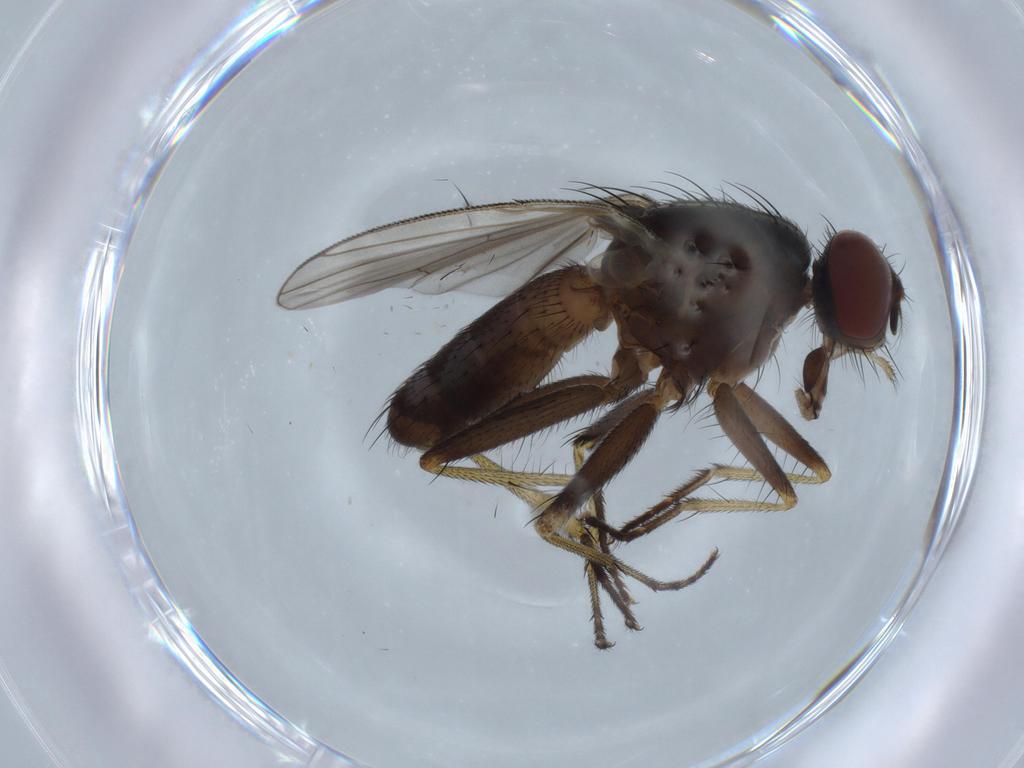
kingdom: Animalia
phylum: Arthropoda
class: Insecta
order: Diptera
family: Muscidae
